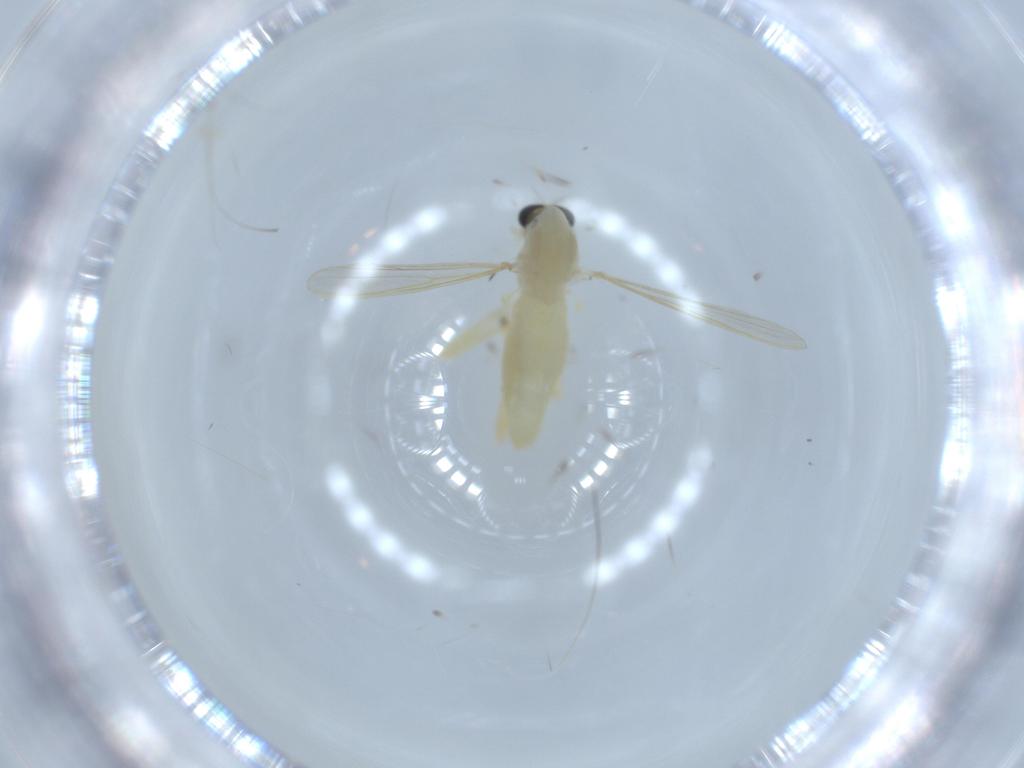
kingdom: Animalia
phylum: Arthropoda
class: Insecta
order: Diptera
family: Chironomidae
